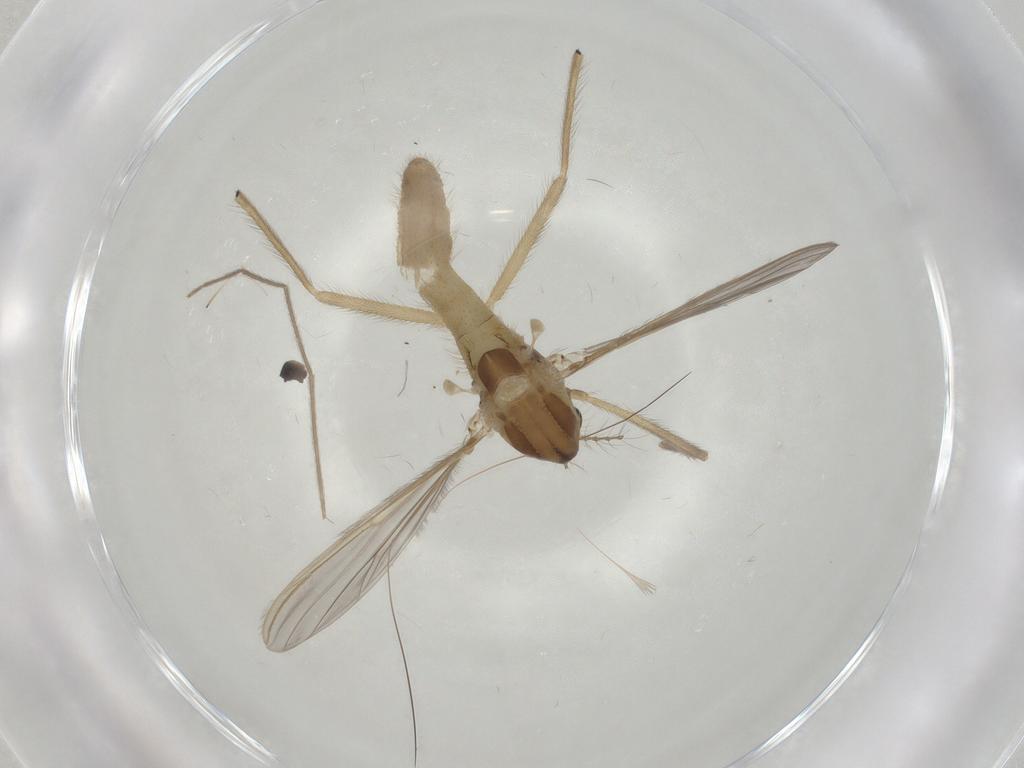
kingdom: Animalia
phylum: Arthropoda
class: Insecta
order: Diptera
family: Chironomidae
